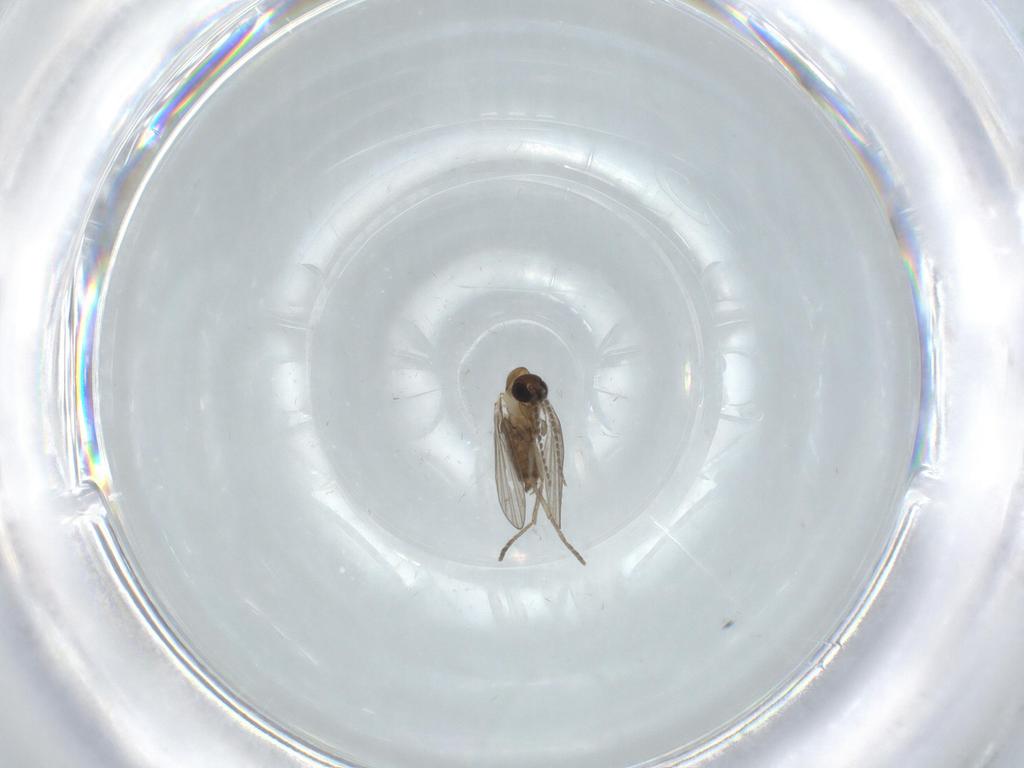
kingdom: Animalia
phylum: Arthropoda
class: Insecta
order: Diptera
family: Psychodidae
